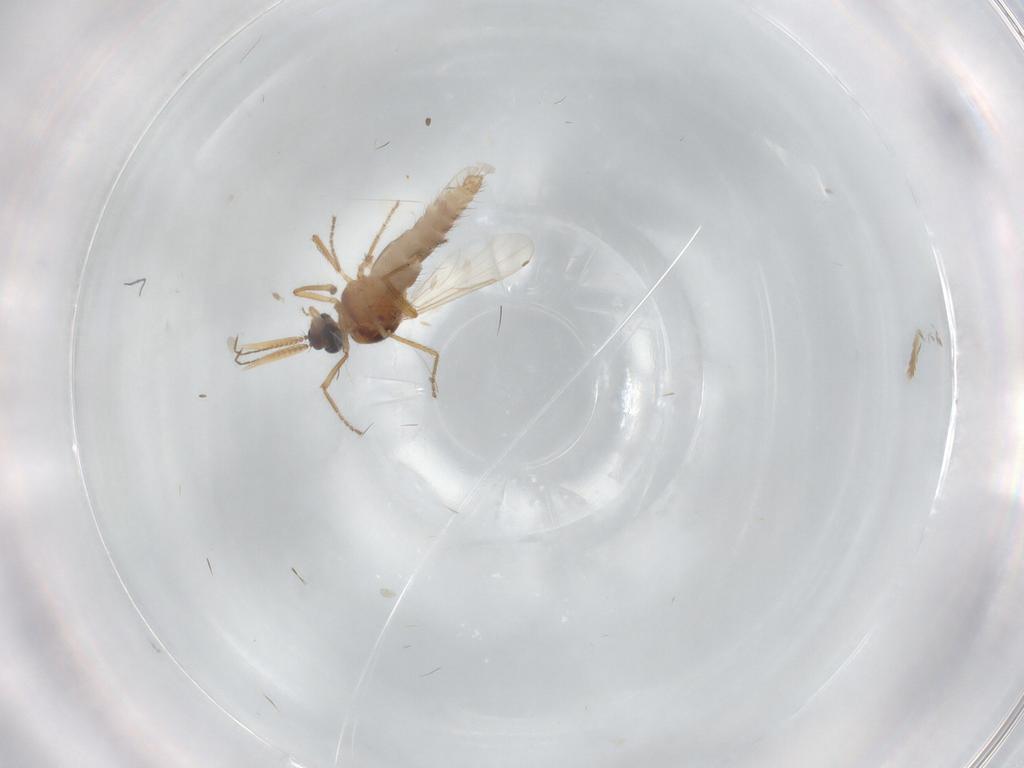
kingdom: Animalia
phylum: Arthropoda
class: Insecta
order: Diptera
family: Ceratopogonidae
